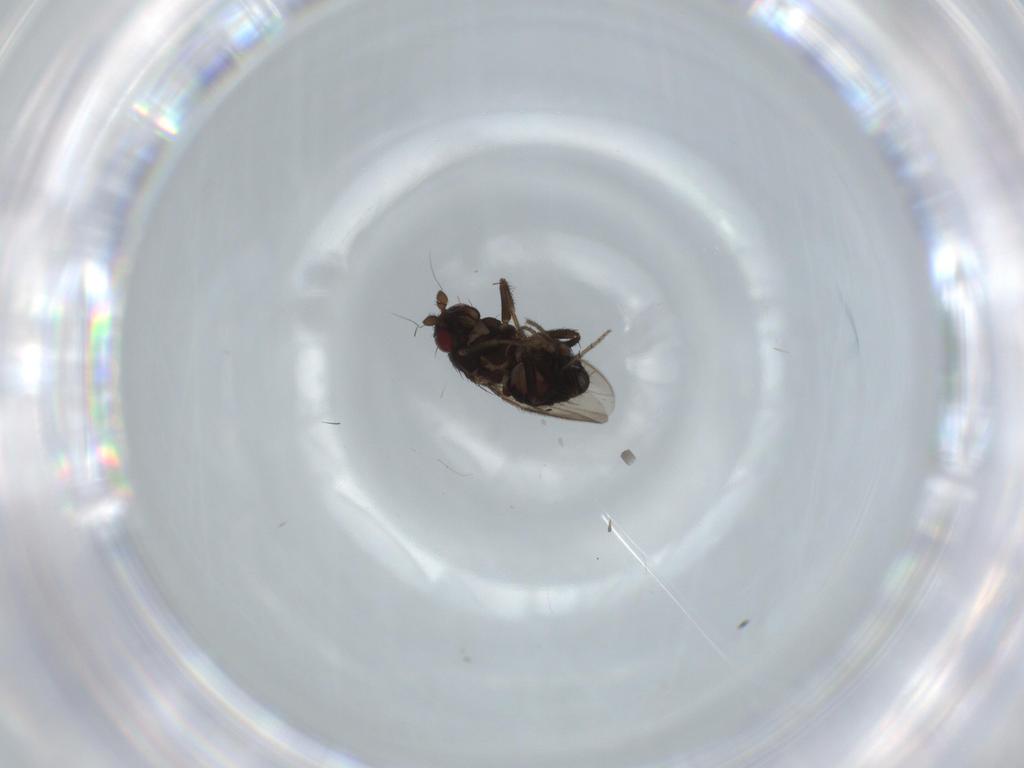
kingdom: Animalia
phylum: Arthropoda
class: Insecta
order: Diptera
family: Sphaeroceridae
